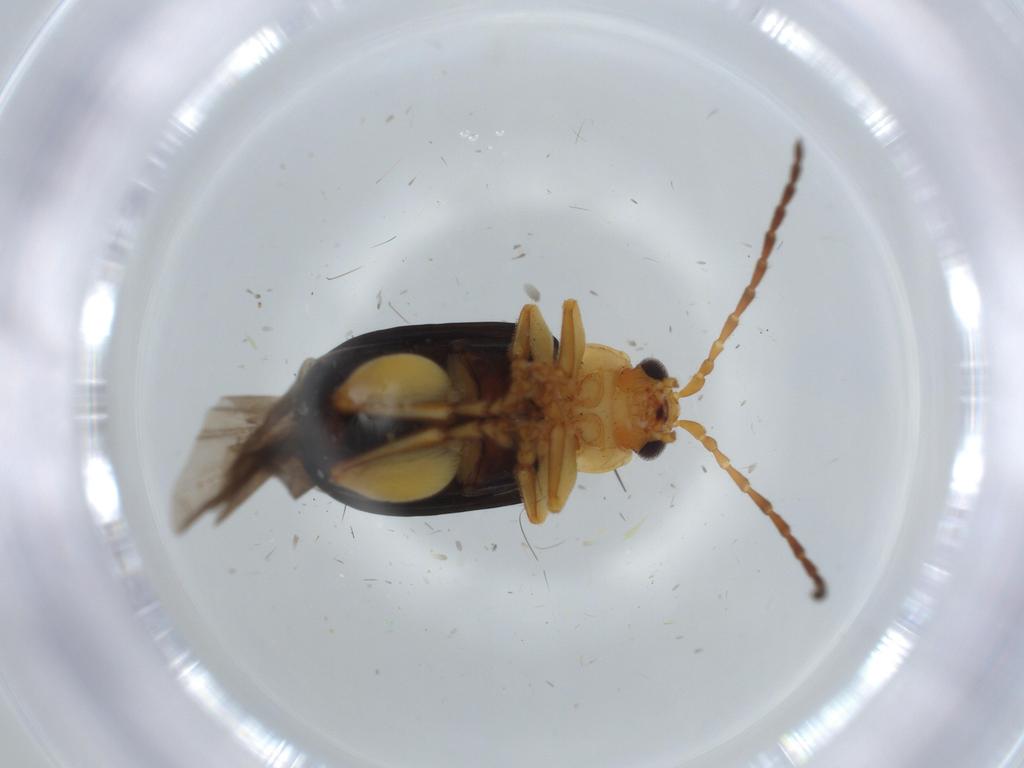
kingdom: Animalia
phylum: Arthropoda
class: Insecta
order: Coleoptera
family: Chrysomelidae
